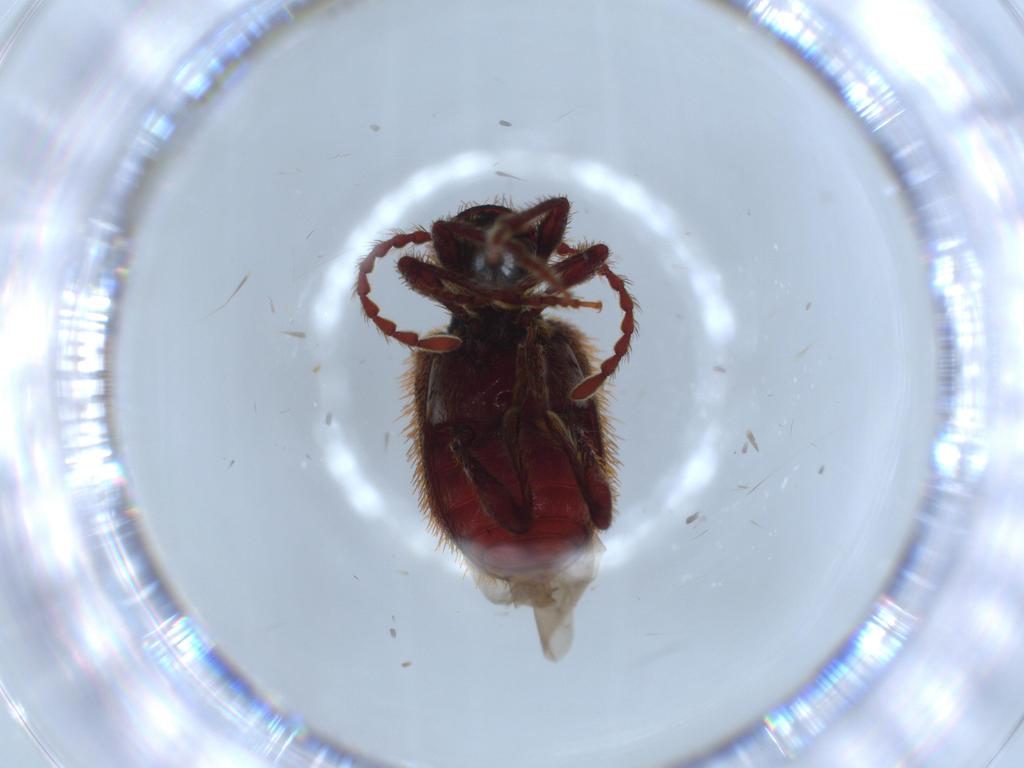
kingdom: Animalia
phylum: Arthropoda
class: Insecta
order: Coleoptera
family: Ptinidae
